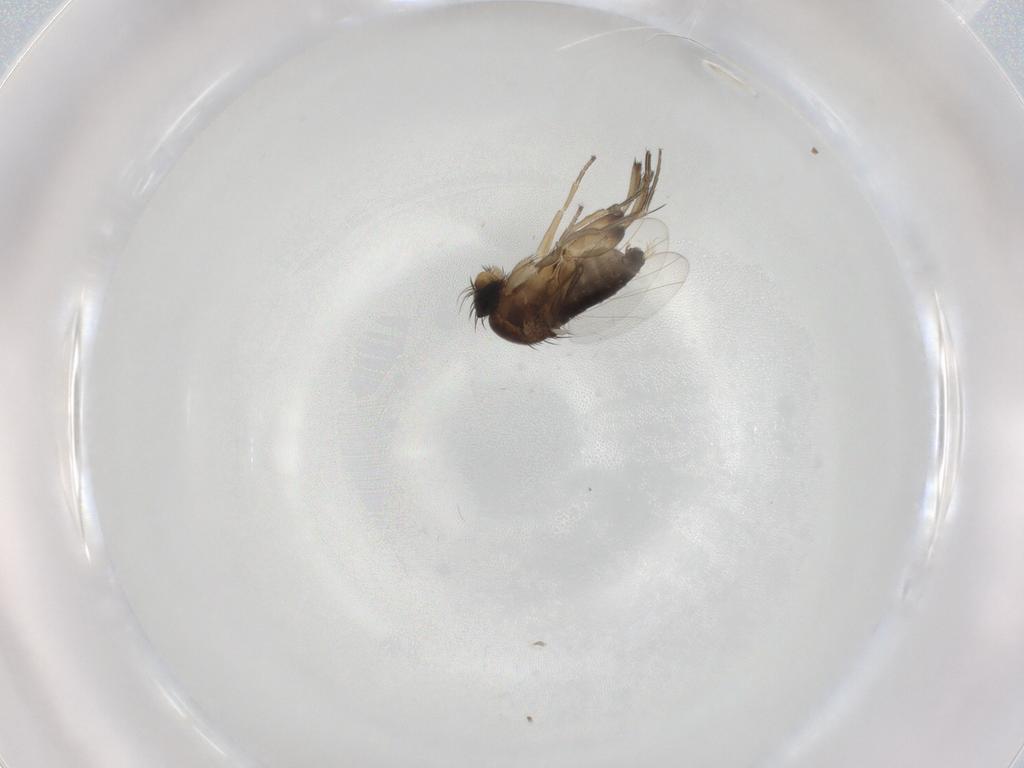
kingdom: Animalia
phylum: Arthropoda
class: Insecta
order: Diptera
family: Phoridae
